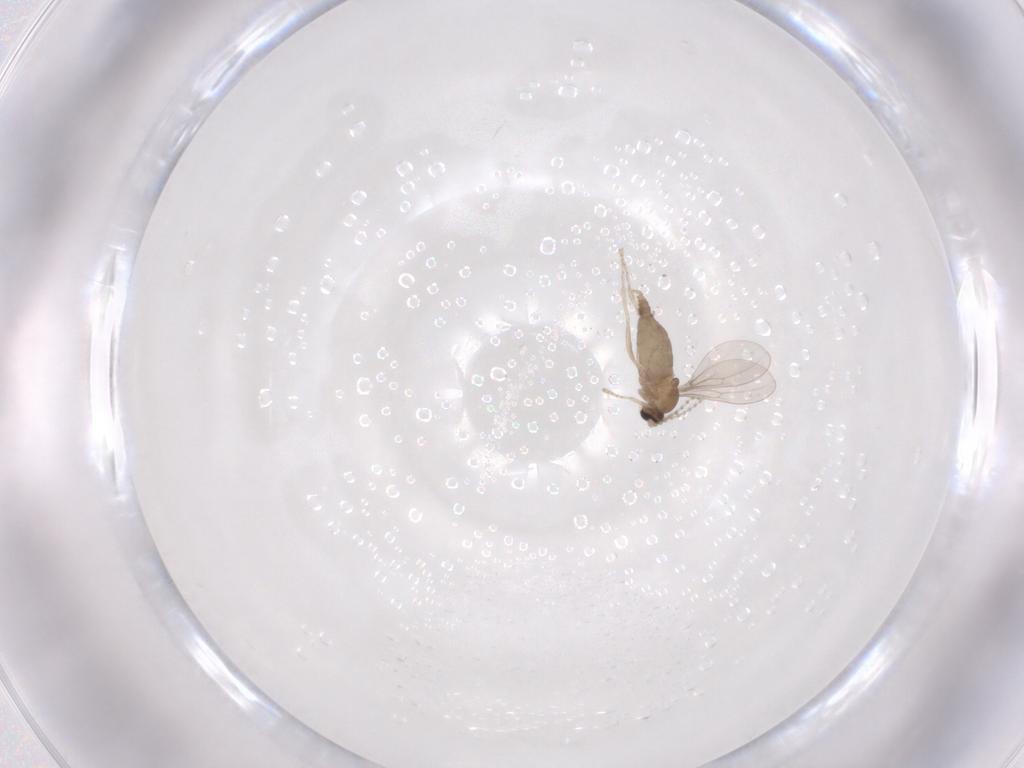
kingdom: Animalia
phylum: Arthropoda
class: Insecta
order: Diptera
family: Cecidomyiidae
